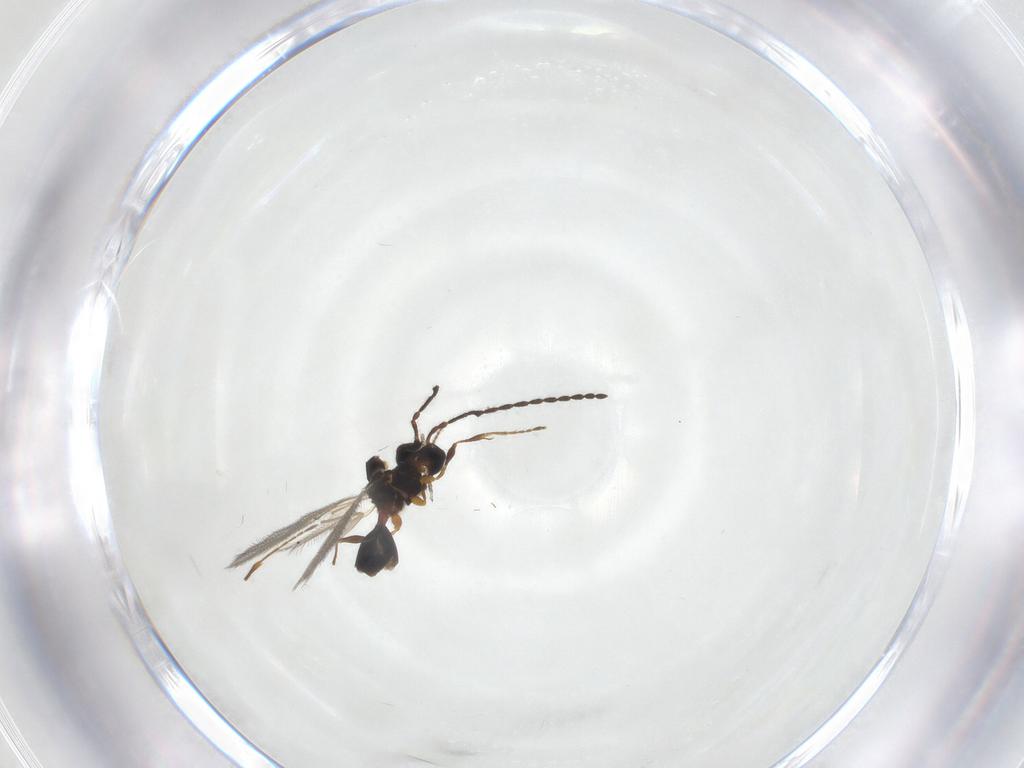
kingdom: Animalia
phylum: Arthropoda
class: Insecta
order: Hymenoptera
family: Diapriidae
